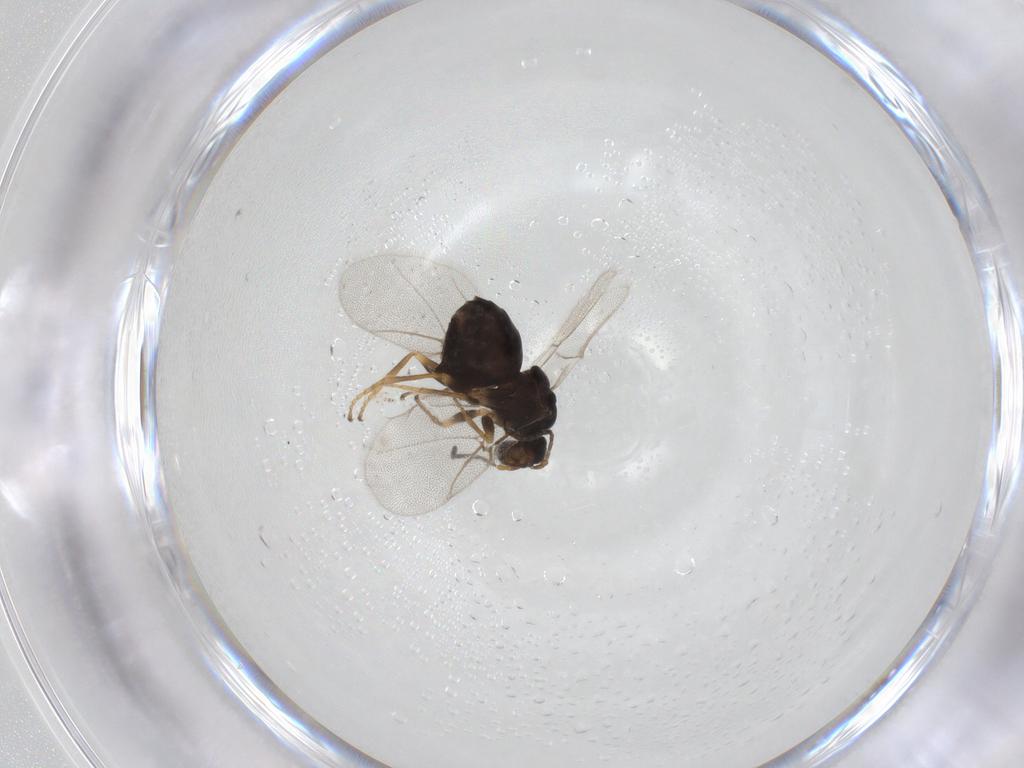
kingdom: Animalia
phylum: Arthropoda
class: Insecta
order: Hymenoptera
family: Cynipidae
